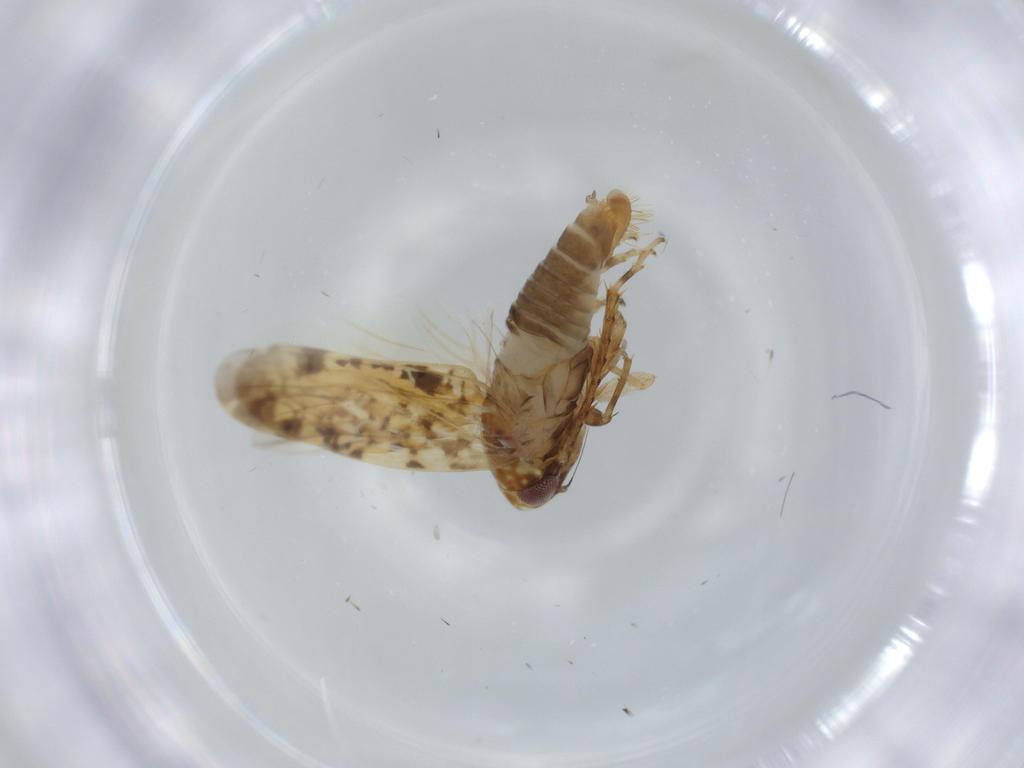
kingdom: Animalia
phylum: Arthropoda
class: Insecta
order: Hemiptera
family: Cicadellidae
